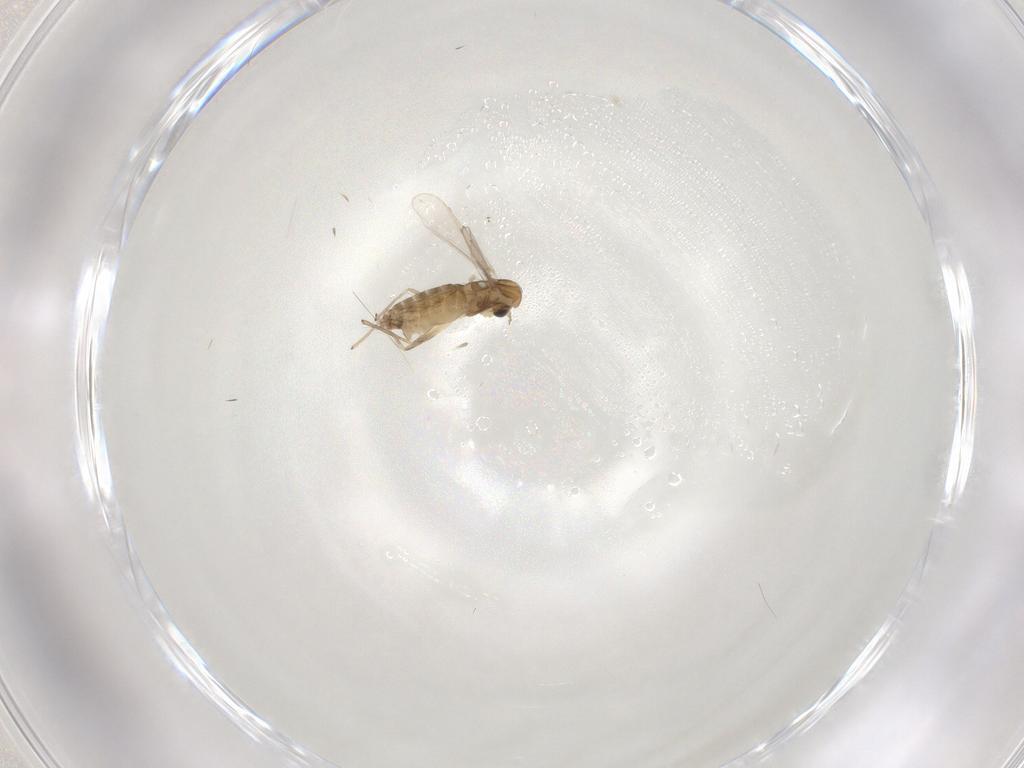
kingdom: Animalia
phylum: Arthropoda
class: Insecta
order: Diptera
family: Chironomidae
